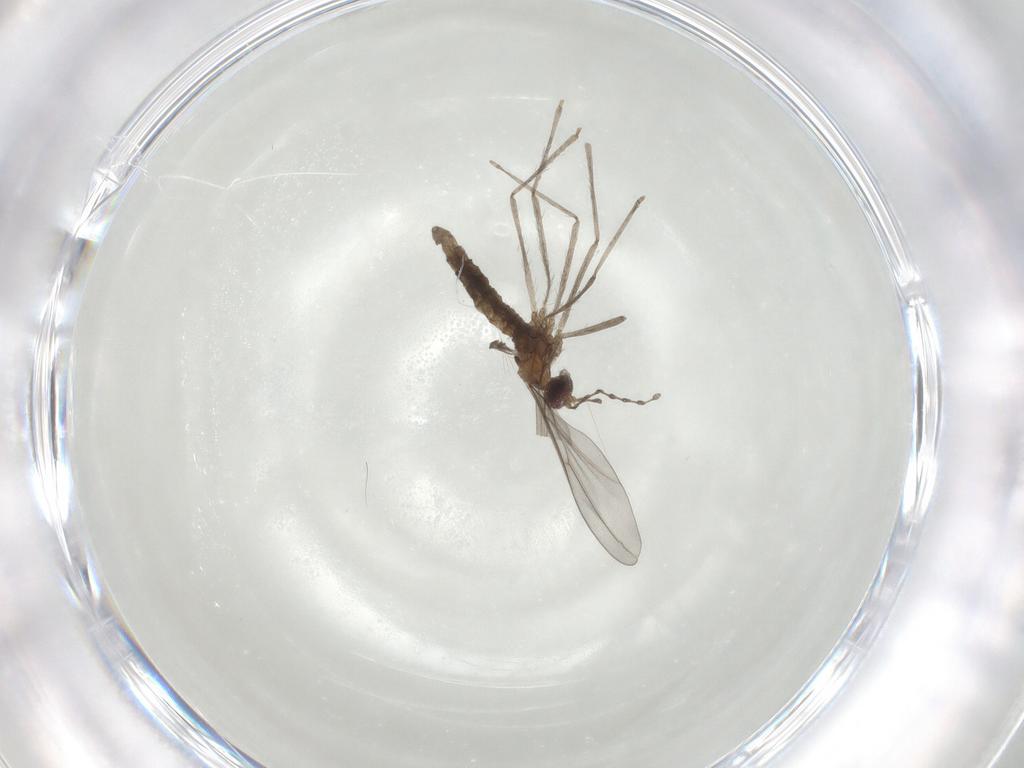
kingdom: Animalia
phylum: Arthropoda
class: Insecta
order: Diptera
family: Cecidomyiidae
